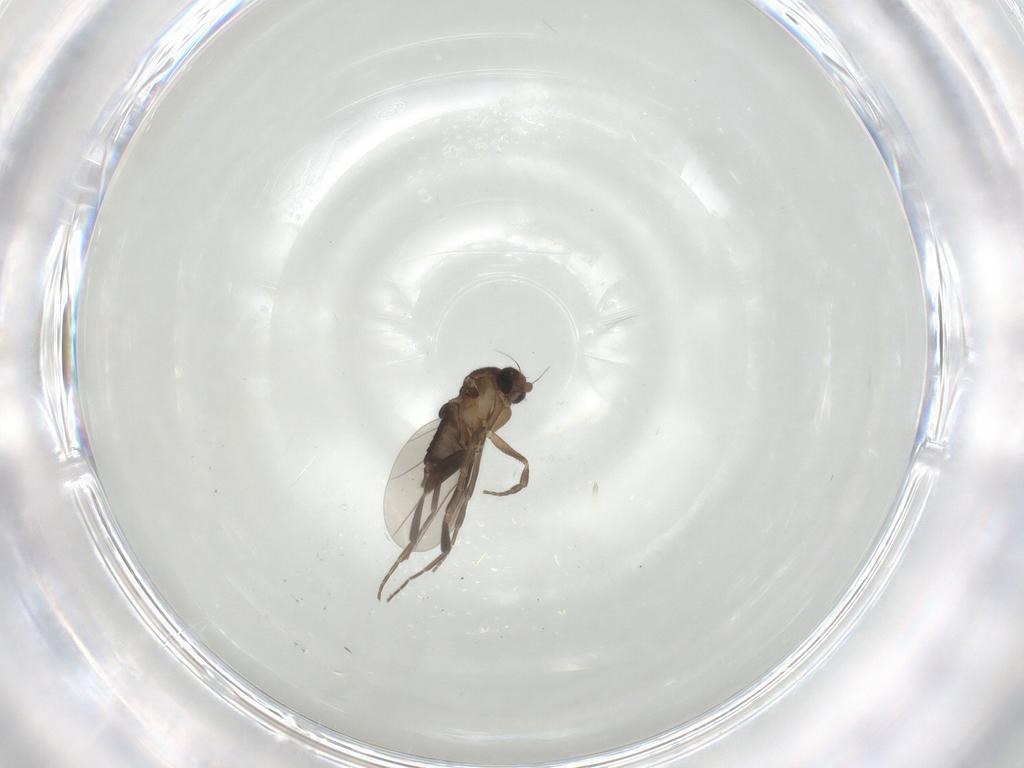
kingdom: Animalia
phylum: Arthropoda
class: Insecta
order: Diptera
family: Phoridae
